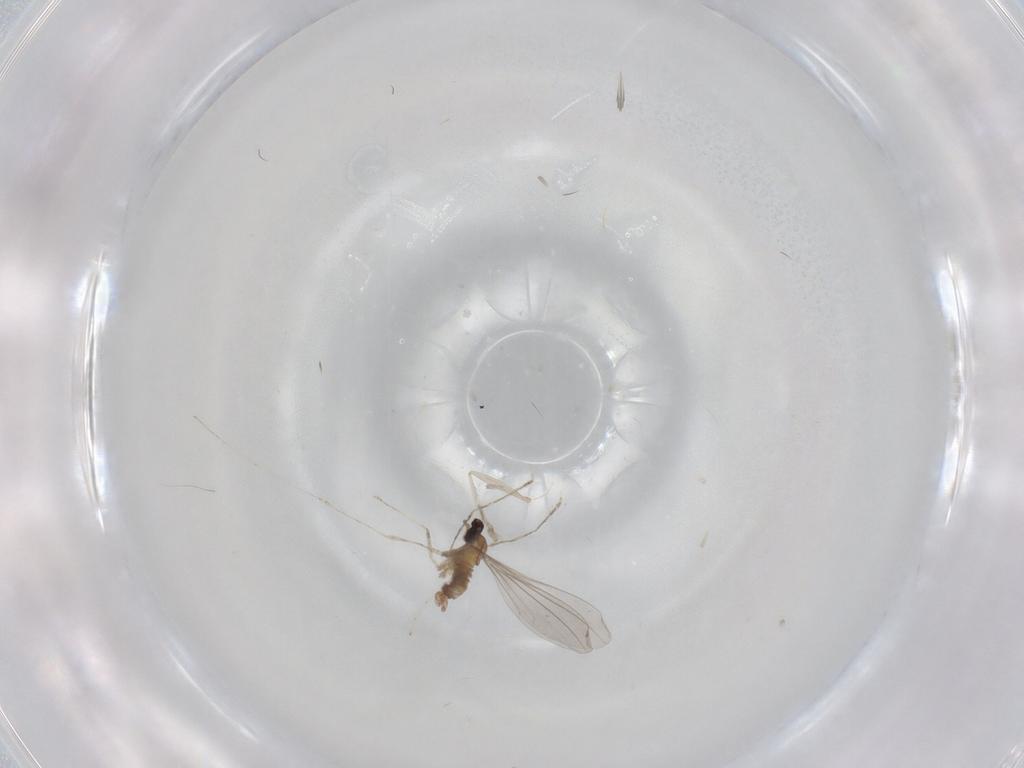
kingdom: Animalia
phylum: Arthropoda
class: Insecta
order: Diptera
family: Cecidomyiidae
